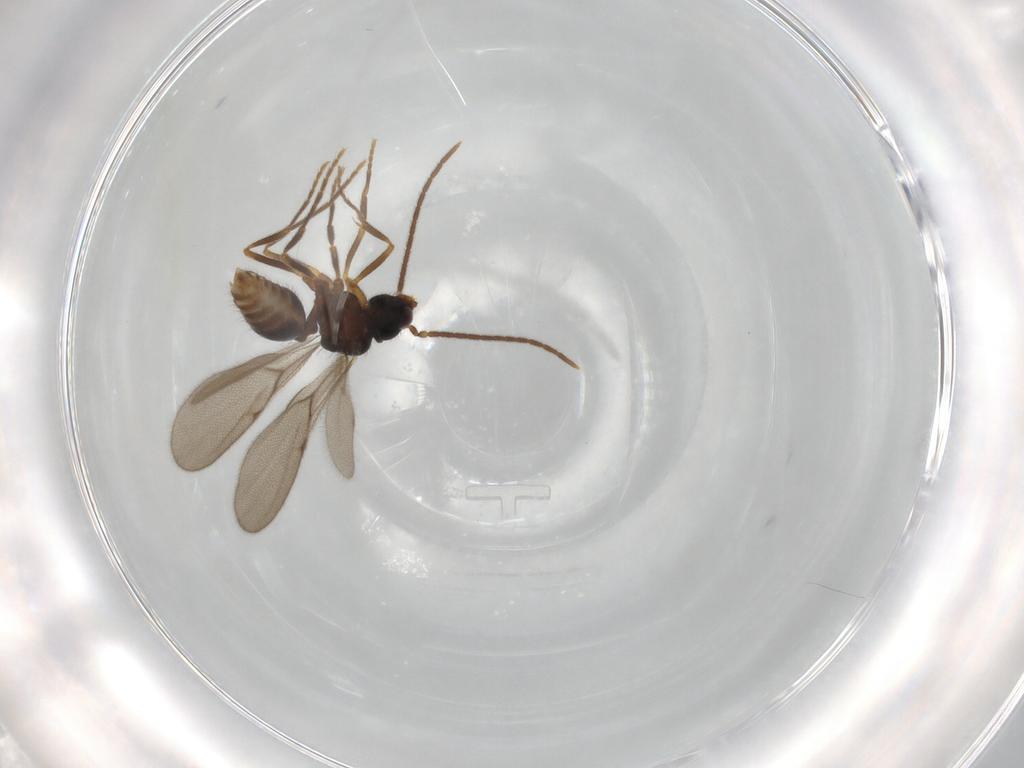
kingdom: Animalia
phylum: Arthropoda
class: Insecta
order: Hymenoptera
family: Formicidae
